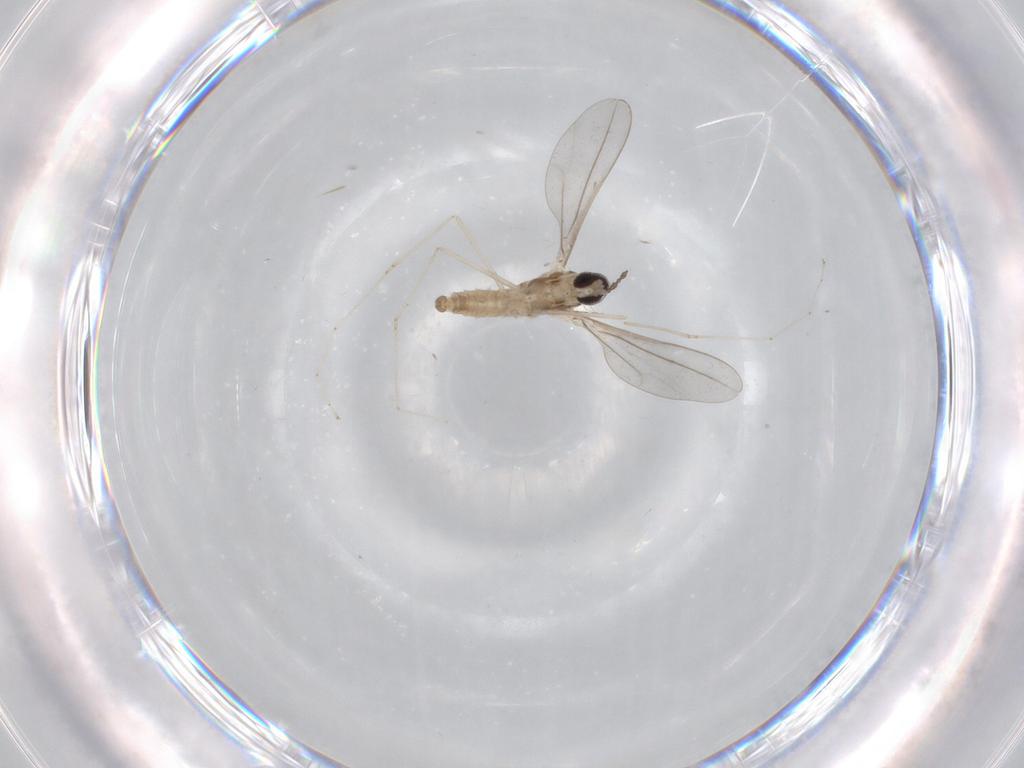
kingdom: Animalia
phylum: Arthropoda
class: Insecta
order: Diptera
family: Cecidomyiidae
